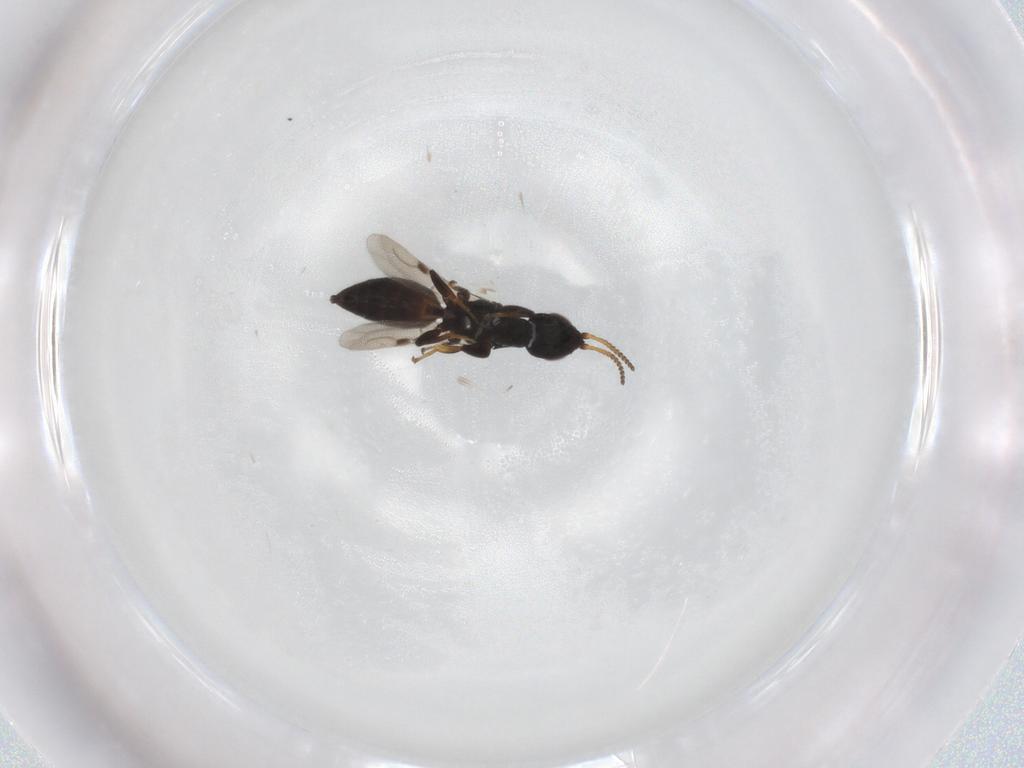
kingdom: Animalia
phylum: Arthropoda
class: Insecta
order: Hymenoptera
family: Bethylidae
